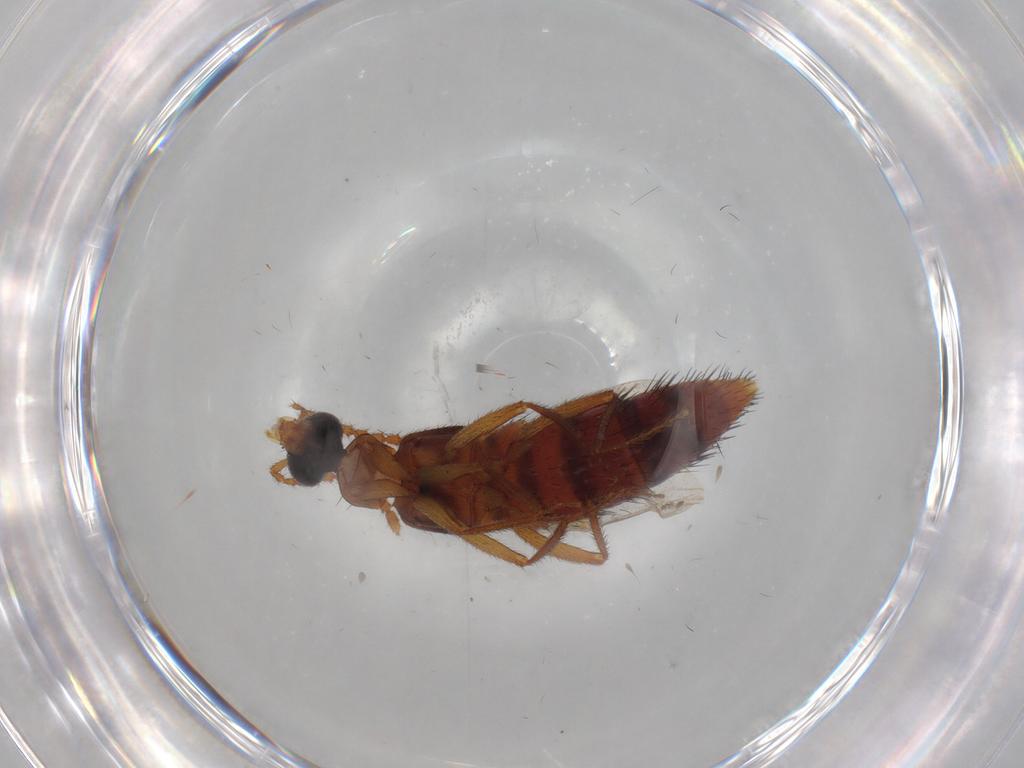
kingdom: Animalia
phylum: Arthropoda
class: Insecta
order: Coleoptera
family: Staphylinidae
